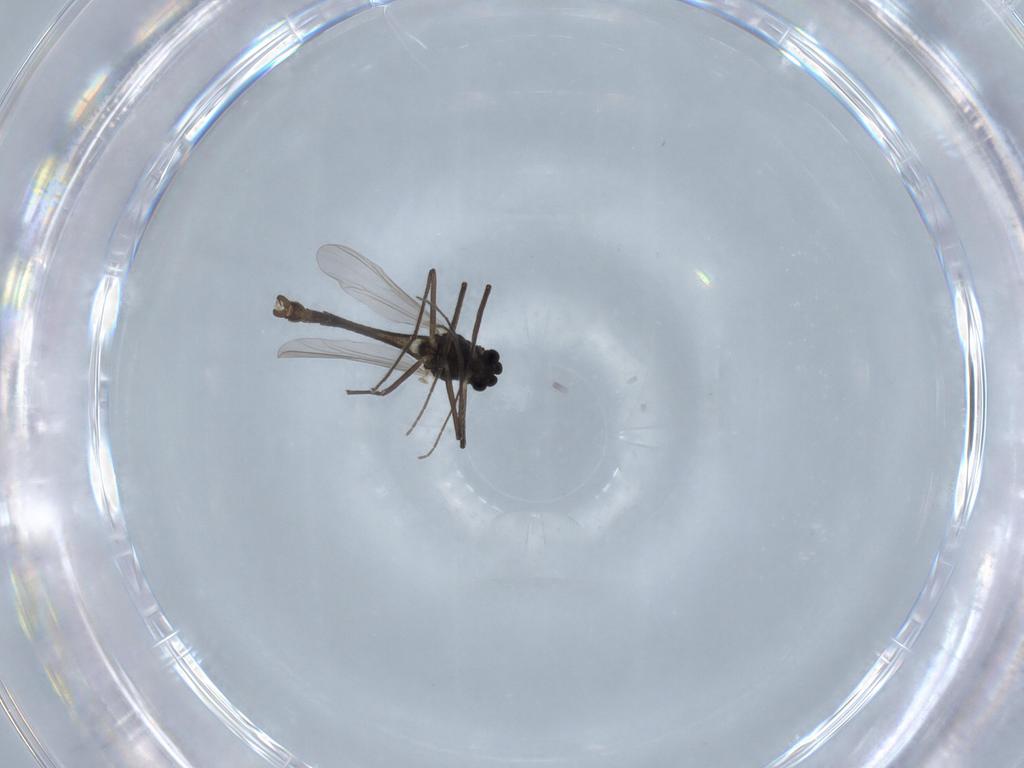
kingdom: Animalia
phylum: Arthropoda
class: Insecta
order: Diptera
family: Chironomidae
